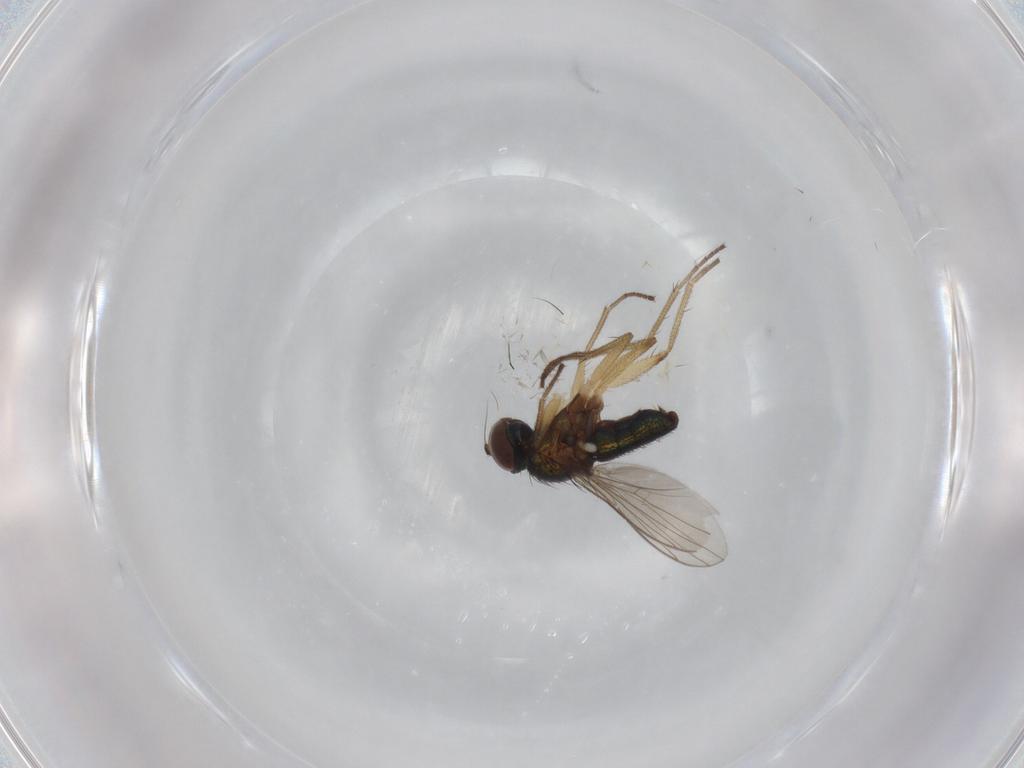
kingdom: Animalia
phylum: Arthropoda
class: Insecta
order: Diptera
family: Dolichopodidae
